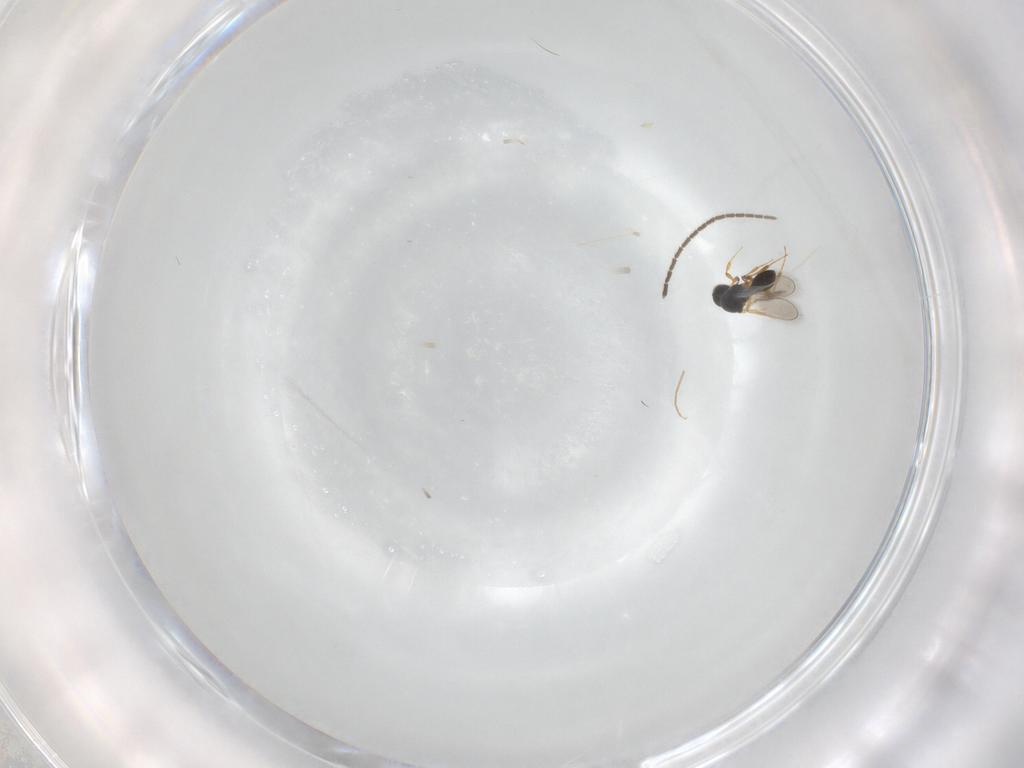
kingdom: Animalia
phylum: Arthropoda
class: Insecta
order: Hymenoptera
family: Platygastridae
